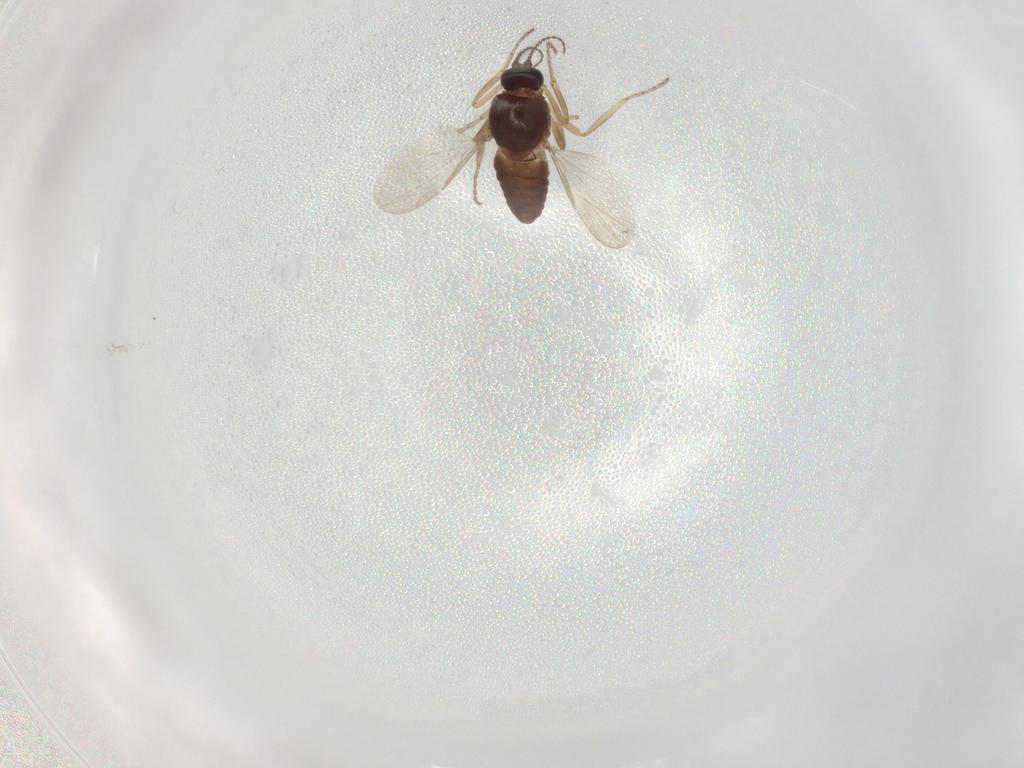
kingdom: Animalia
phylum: Arthropoda
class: Insecta
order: Diptera
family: Ceratopogonidae
